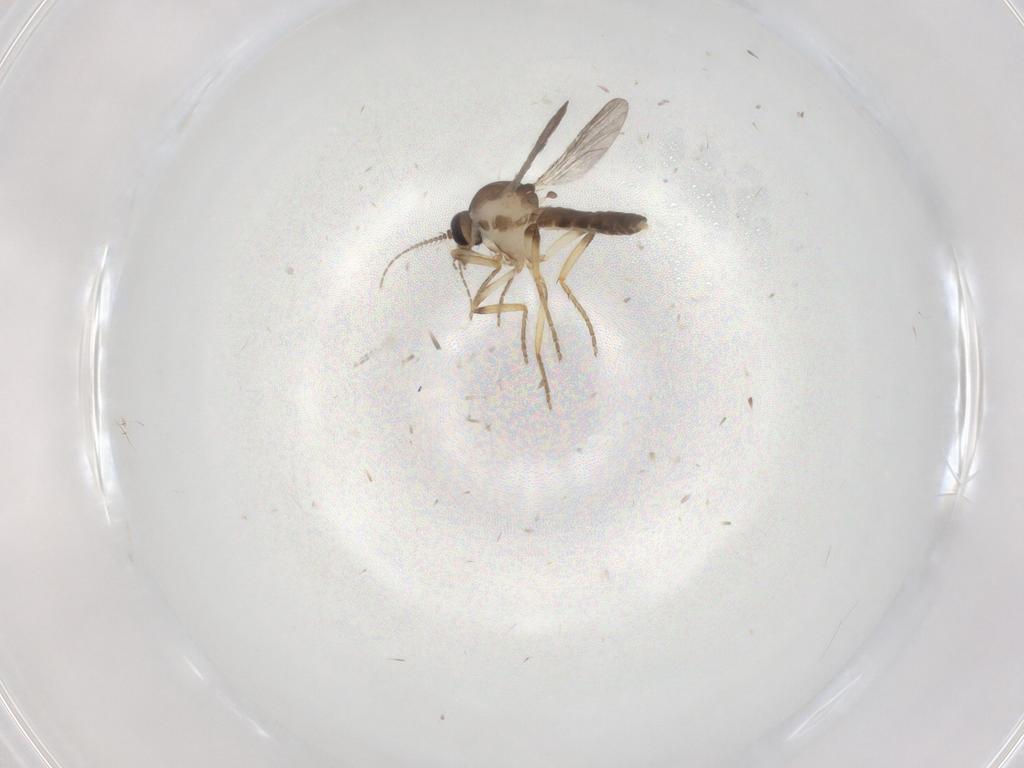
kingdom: Animalia
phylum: Arthropoda
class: Insecta
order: Diptera
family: Ceratopogonidae
